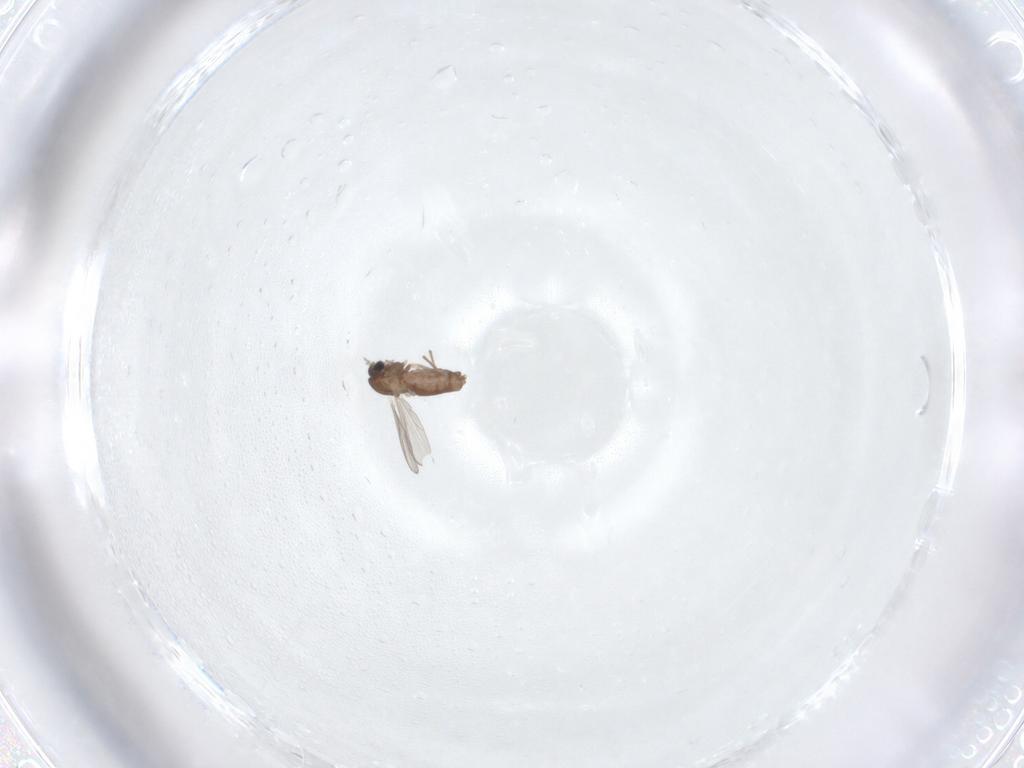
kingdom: Animalia
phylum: Arthropoda
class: Insecta
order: Diptera
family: Chironomidae
